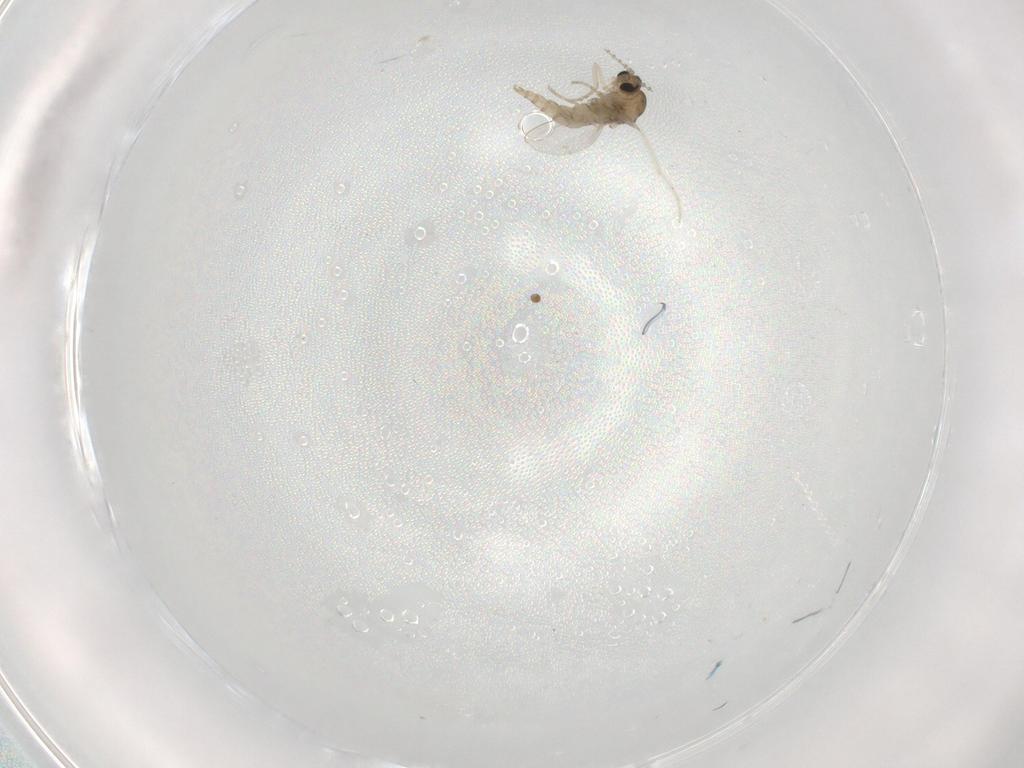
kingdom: Animalia
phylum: Arthropoda
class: Insecta
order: Diptera
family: Cecidomyiidae
